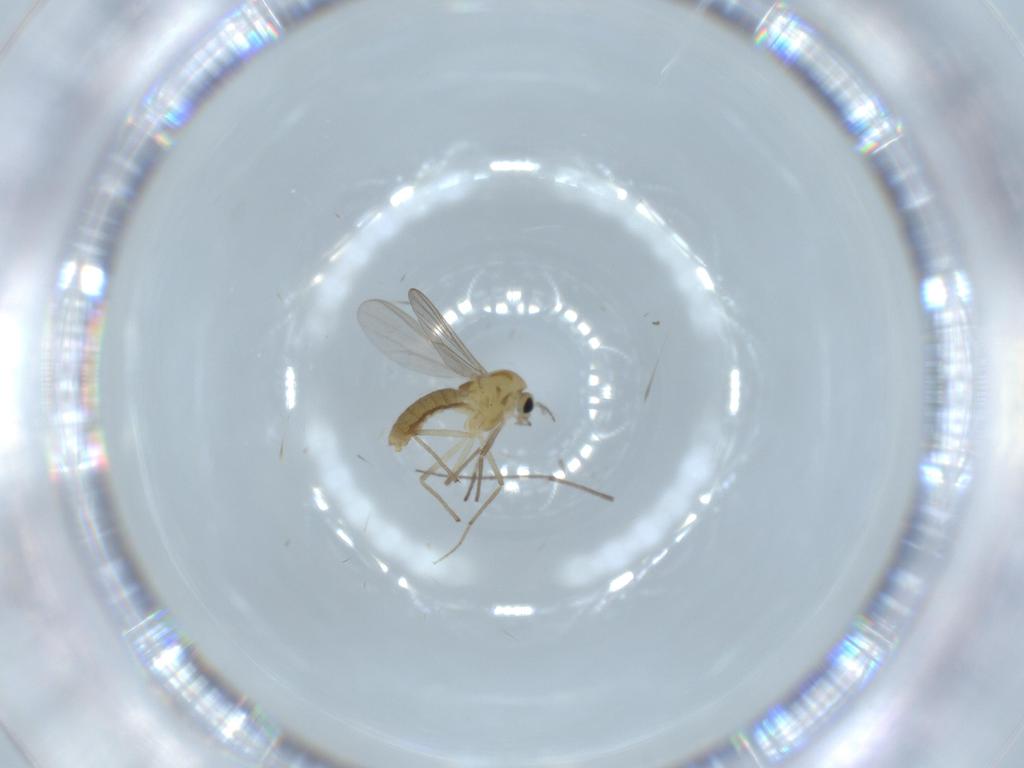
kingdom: Animalia
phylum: Arthropoda
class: Insecta
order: Diptera
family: Chironomidae
